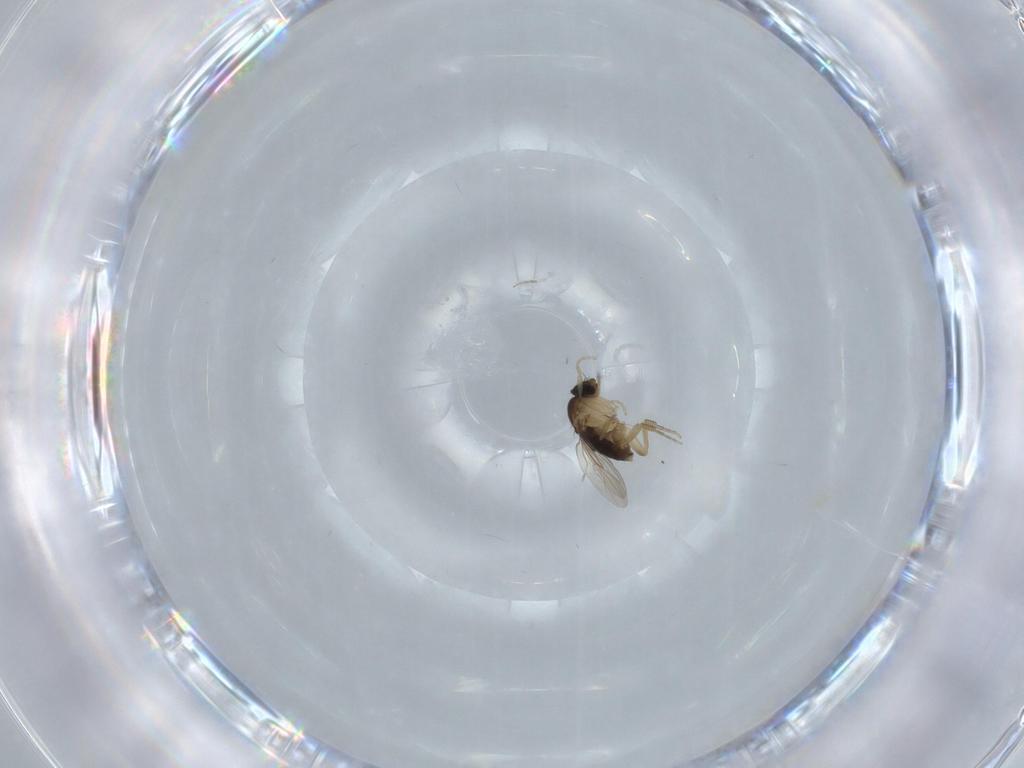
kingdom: Animalia
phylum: Arthropoda
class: Insecta
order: Diptera
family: Phoridae
